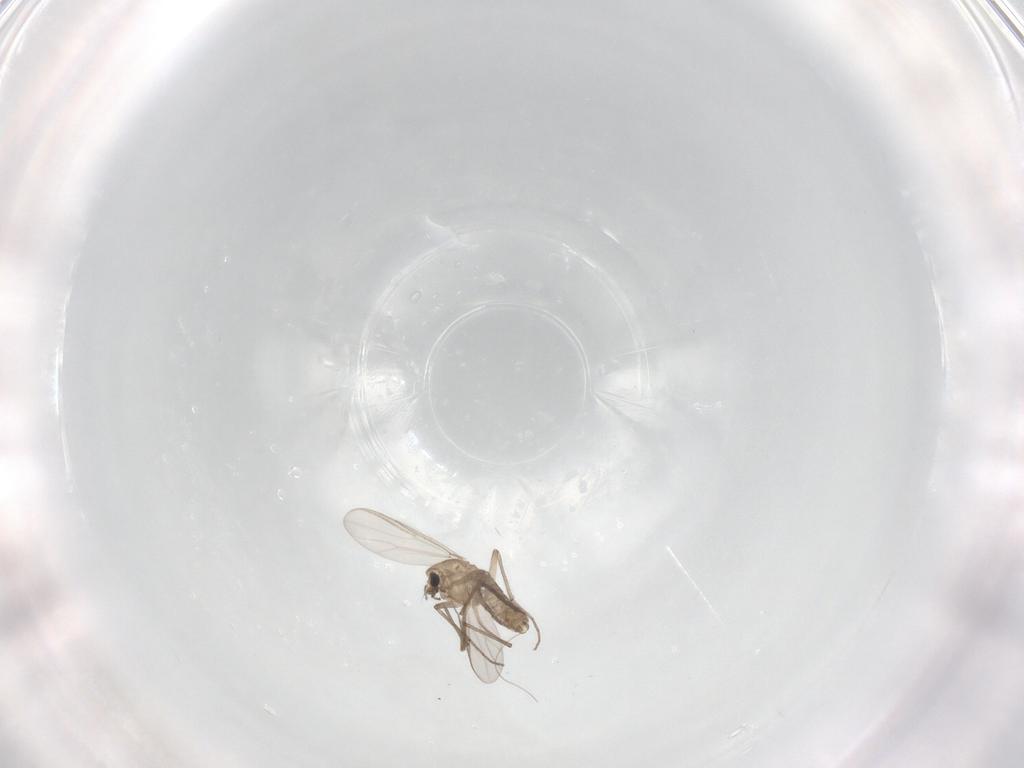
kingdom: Animalia
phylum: Arthropoda
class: Insecta
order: Diptera
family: Chironomidae
